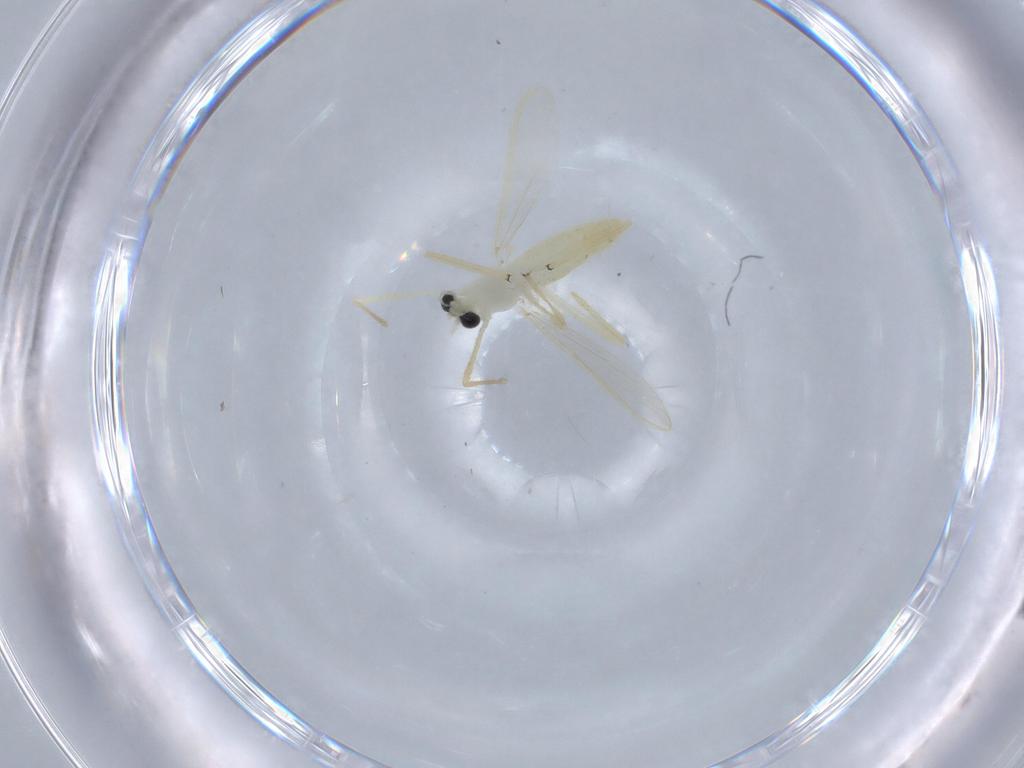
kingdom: Animalia
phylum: Arthropoda
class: Insecta
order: Diptera
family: Chironomidae
